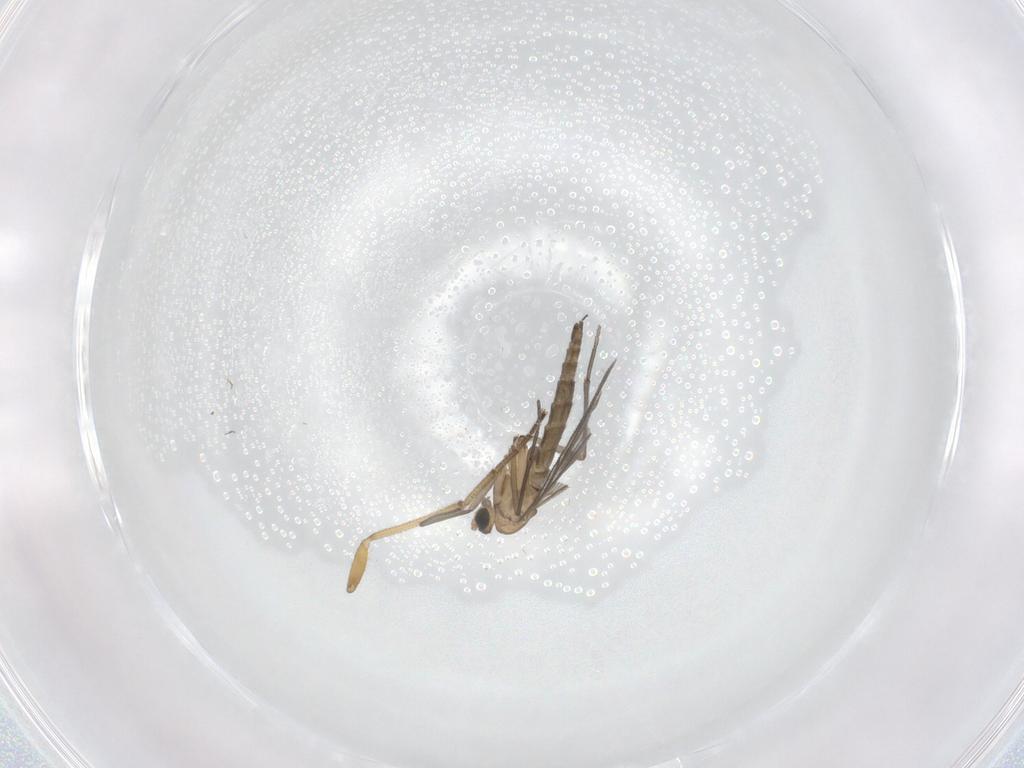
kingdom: Animalia
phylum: Arthropoda
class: Insecta
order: Diptera
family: Sciaridae
